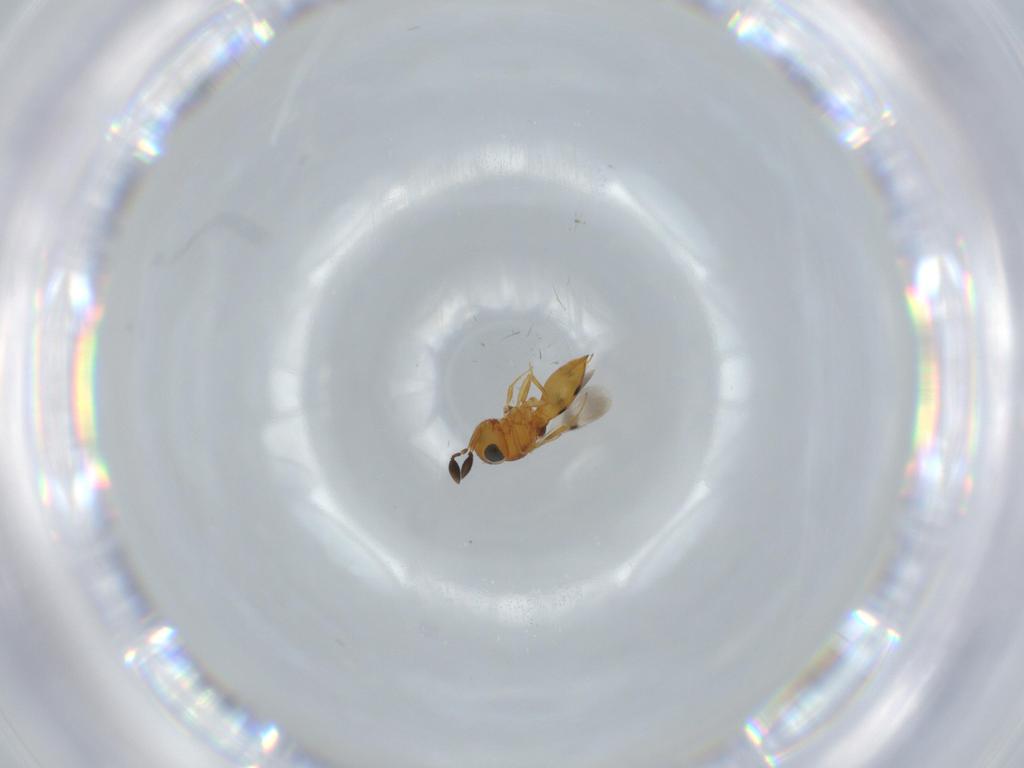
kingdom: Animalia
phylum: Arthropoda
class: Insecta
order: Hymenoptera
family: Scelionidae
